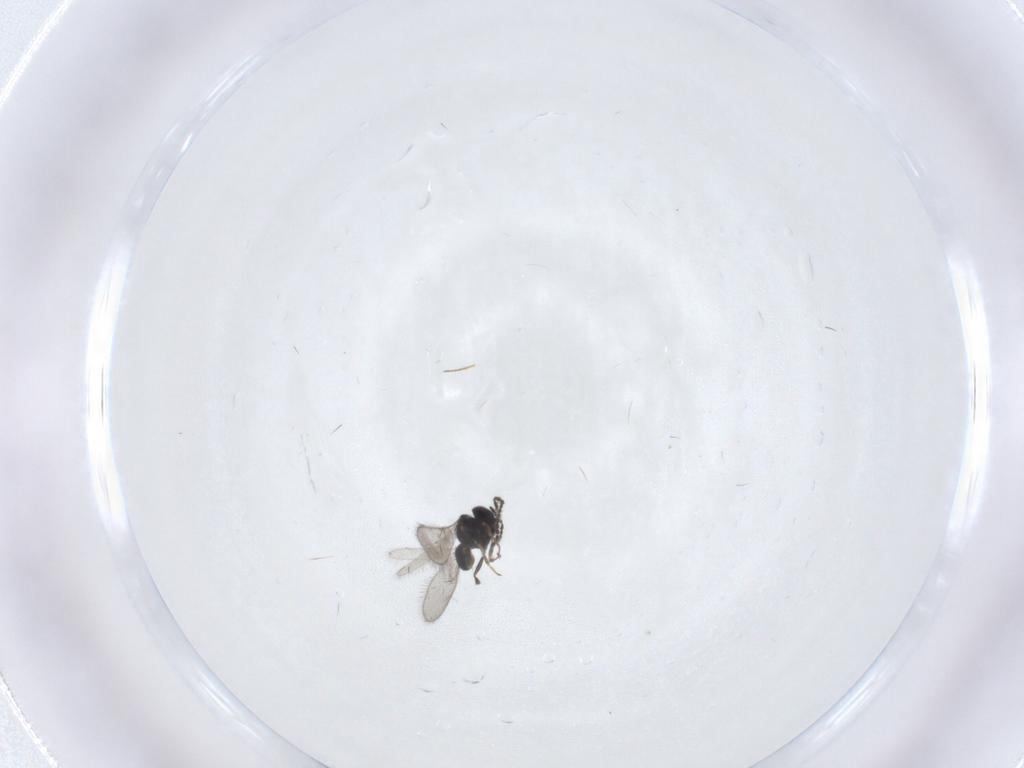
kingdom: Animalia
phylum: Arthropoda
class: Insecta
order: Hymenoptera
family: Scelionidae
